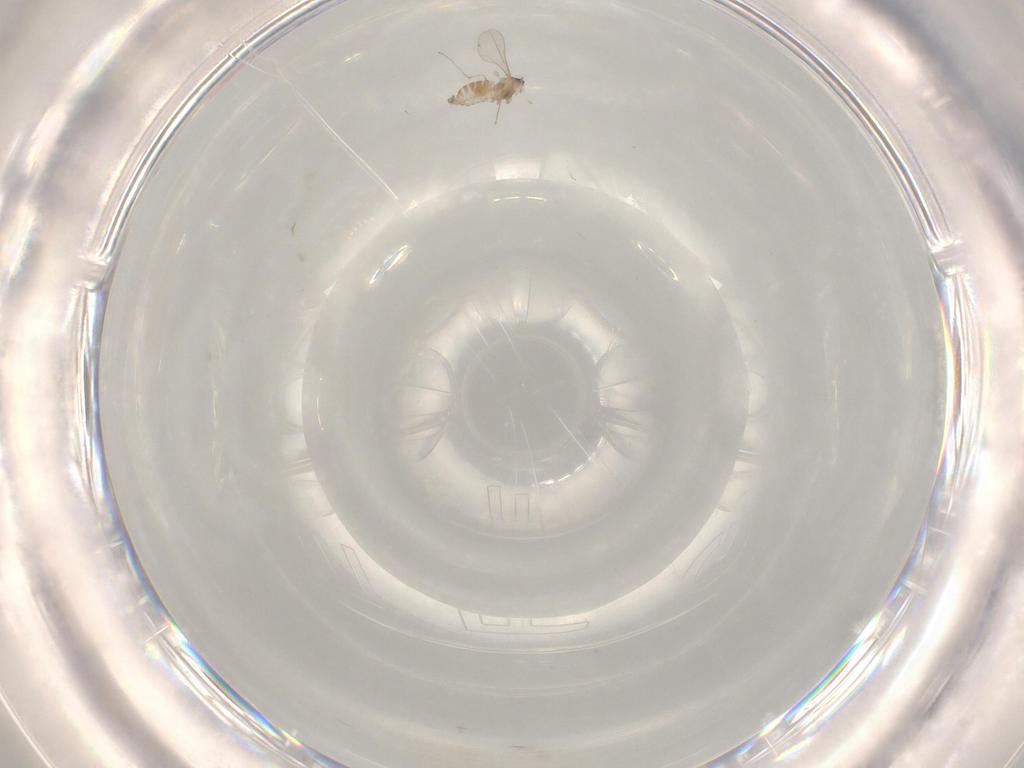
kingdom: Animalia
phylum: Arthropoda
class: Insecta
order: Diptera
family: Cecidomyiidae
